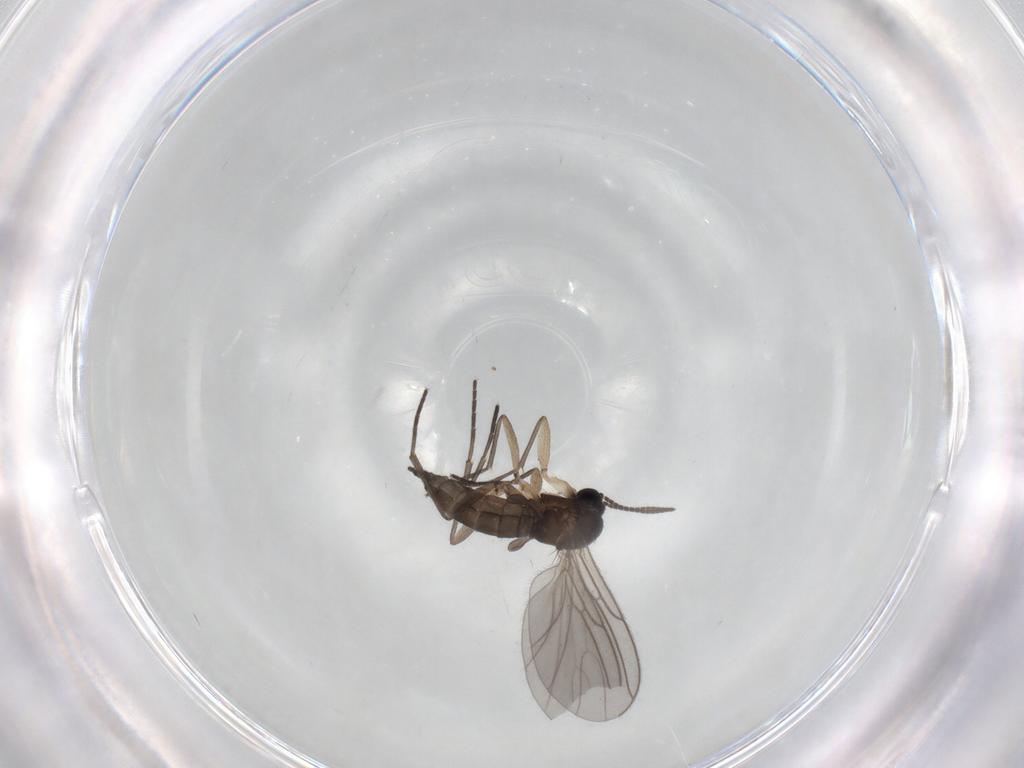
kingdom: Animalia
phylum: Arthropoda
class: Insecta
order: Diptera
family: Sciaridae
